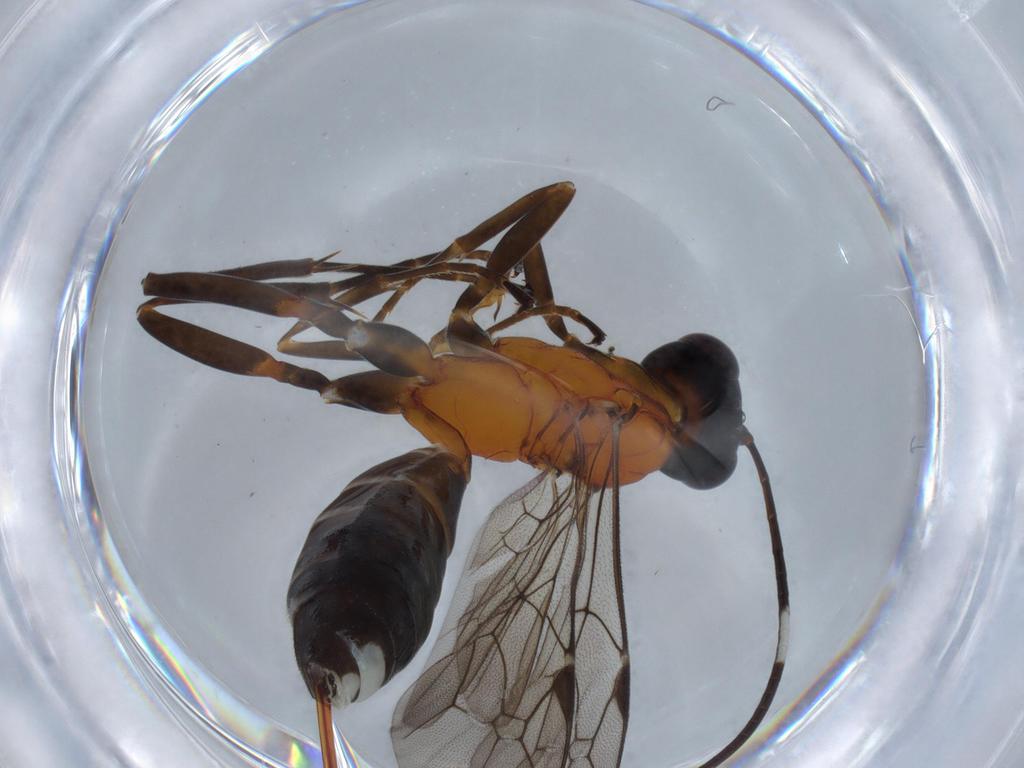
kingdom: Animalia
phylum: Arthropoda
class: Insecta
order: Hymenoptera
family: Ichneumonidae
